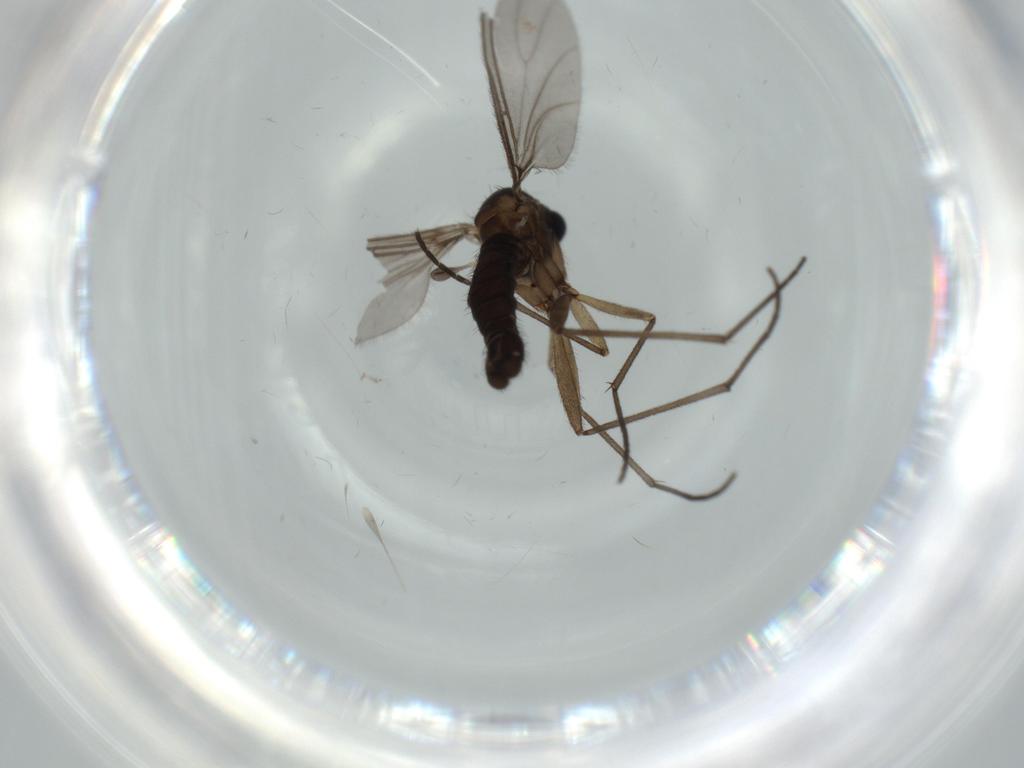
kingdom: Animalia
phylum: Arthropoda
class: Insecta
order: Diptera
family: Sciaridae
